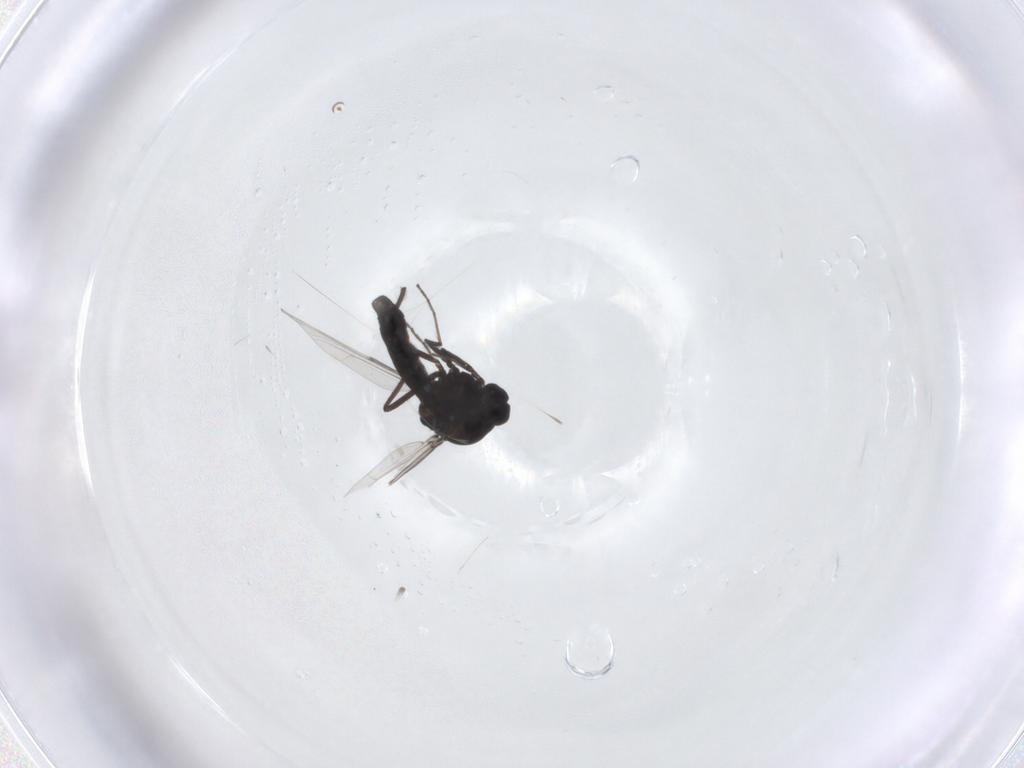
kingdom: Animalia
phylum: Arthropoda
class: Insecta
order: Diptera
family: Ceratopogonidae
